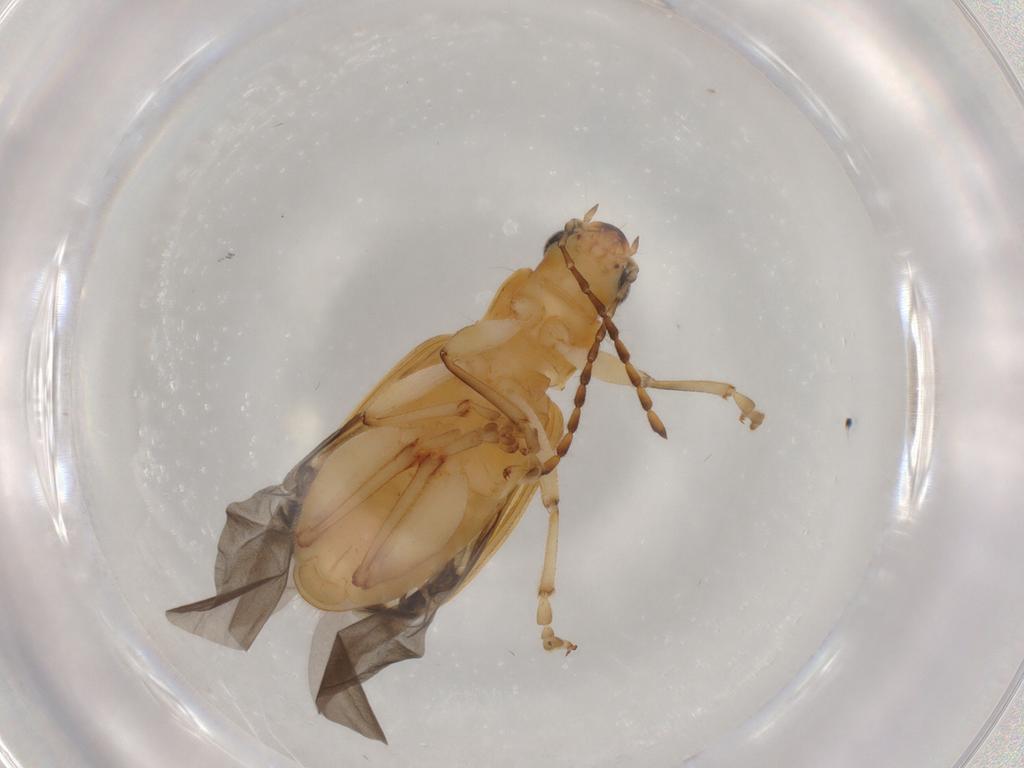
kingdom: Animalia
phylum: Arthropoda
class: Insecta
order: Coleoptera
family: Chrysomelidae
